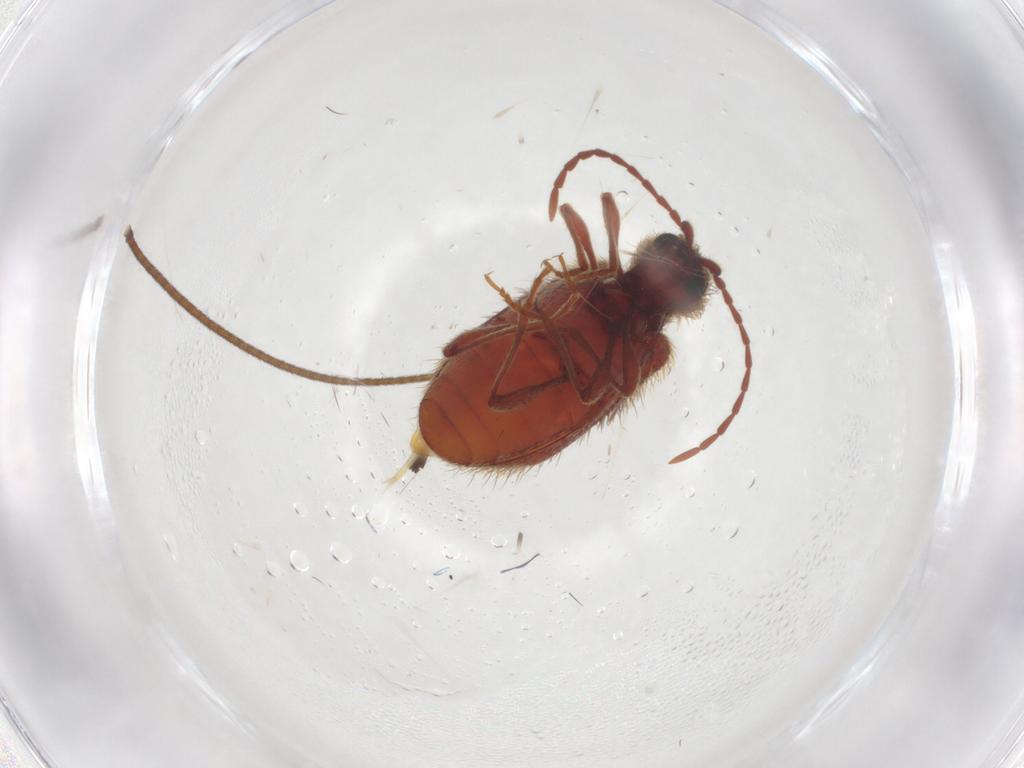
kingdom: Animalia
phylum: Arthropoda
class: Insecta
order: Coleoptera
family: Ptinidae
